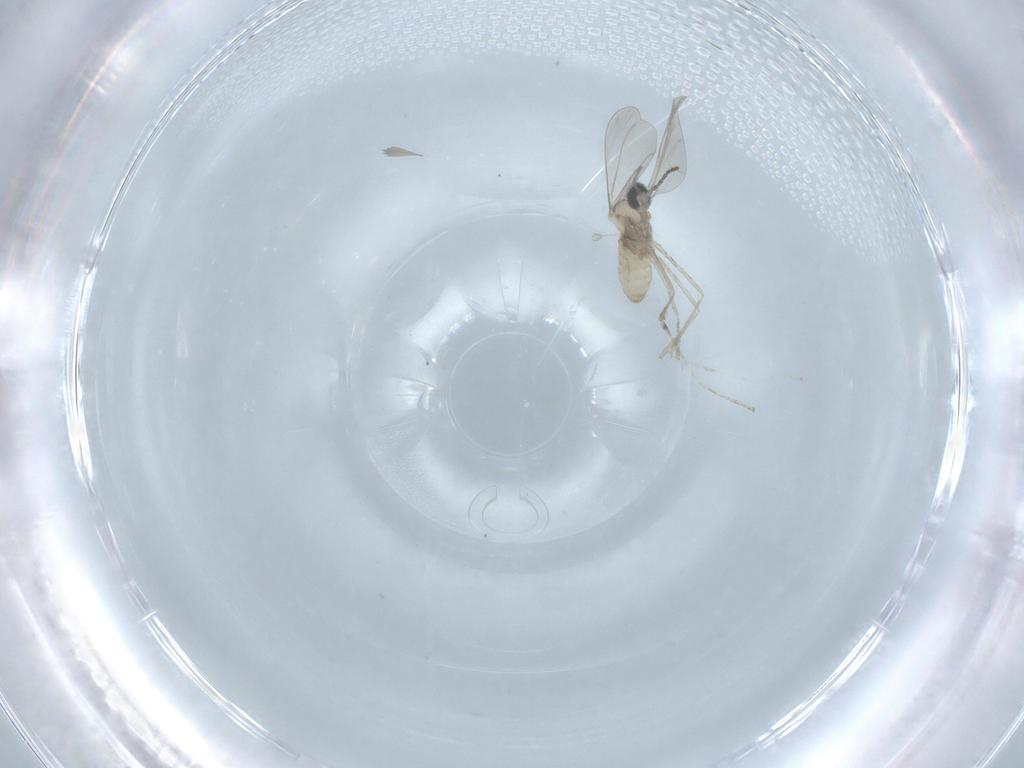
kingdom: Animalia
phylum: Arthropoda
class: Insecta
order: Diptera
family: Cecidomyiidae
